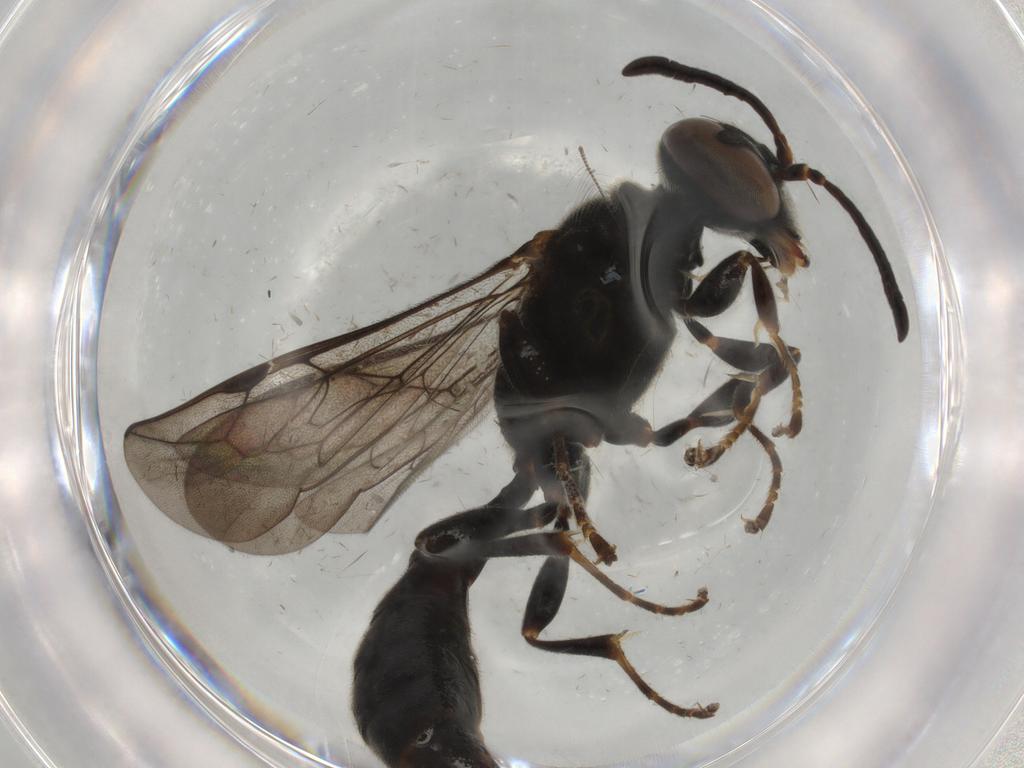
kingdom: Animalia
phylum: Arthropoda
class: Insecta
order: Hymenoptera
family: Crabronidae
